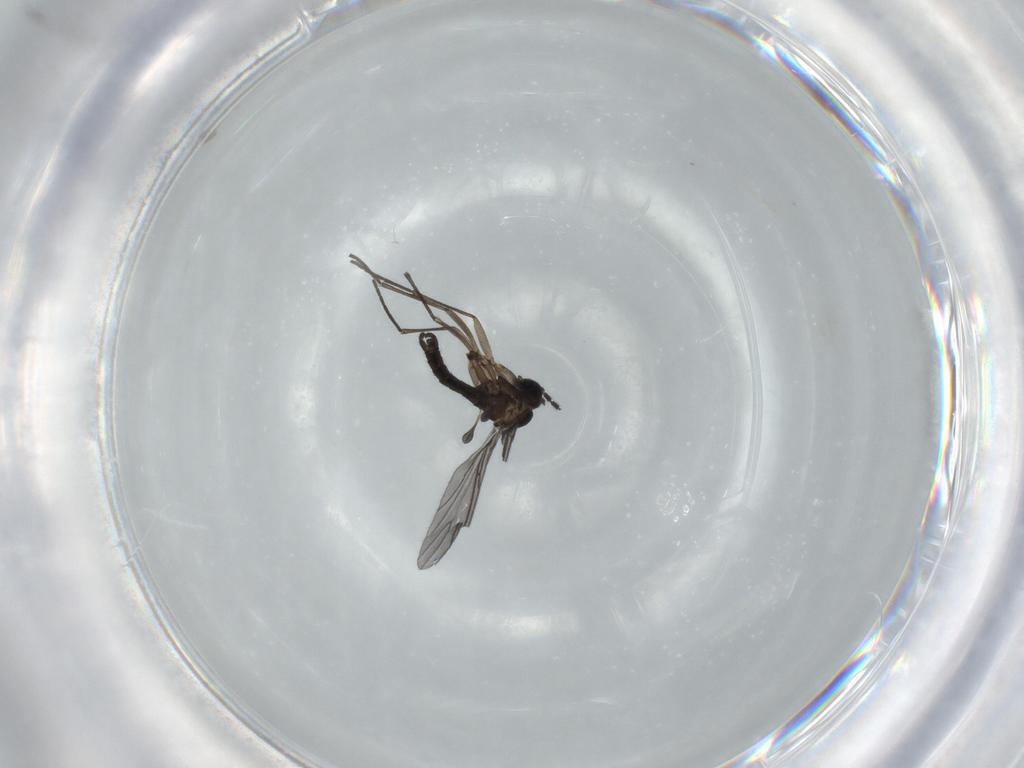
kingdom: Animalia
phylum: Arthropoda
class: Insecta
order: Diptera
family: Sciaridae
